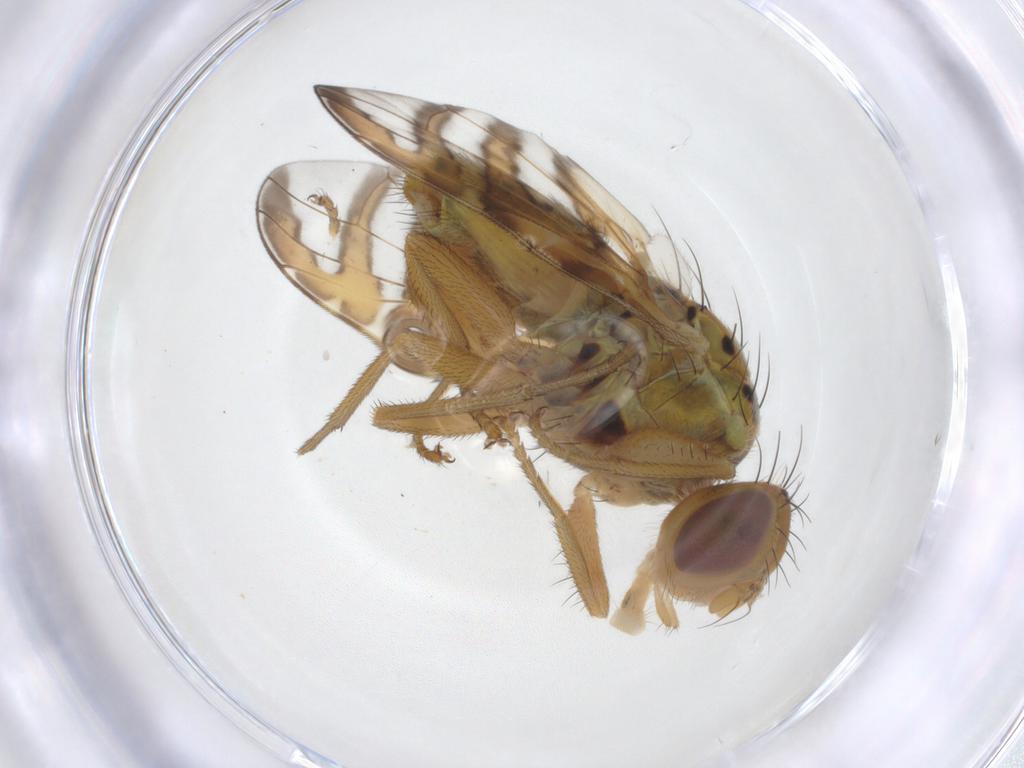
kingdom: Animalia
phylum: Arthropoda
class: Insecta
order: Diptera
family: Tephritidae
